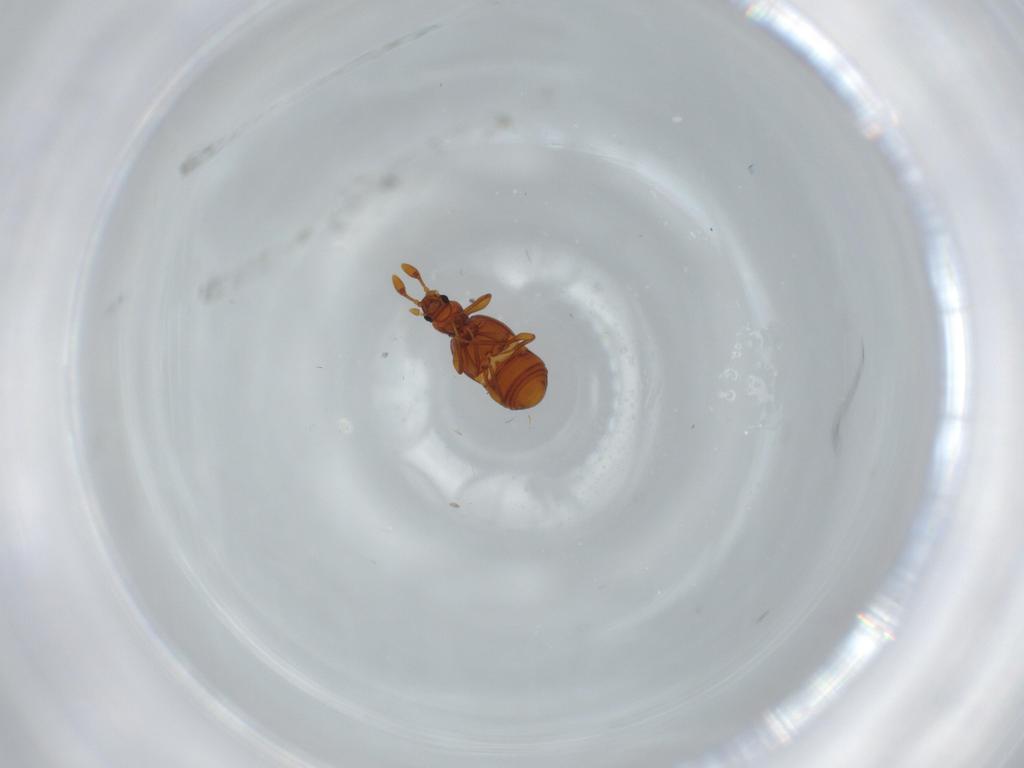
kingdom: Animalia
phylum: Arthropoda
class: Insecta
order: Coleoptera
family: Staphylinidae
